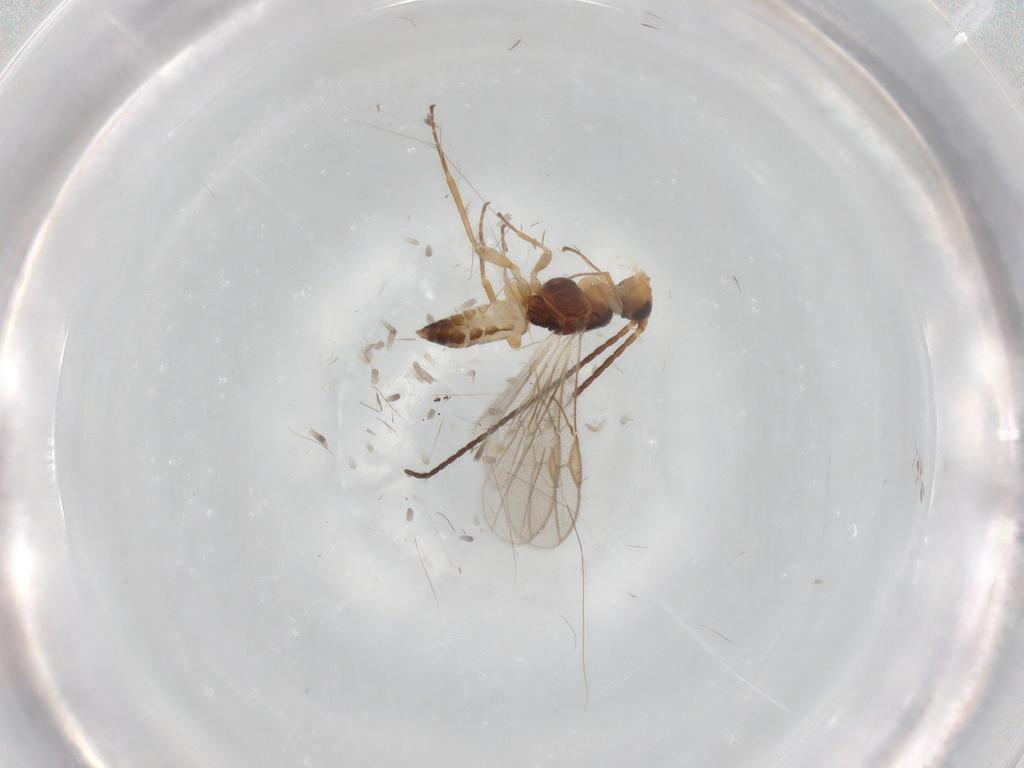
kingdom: Animalia
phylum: Arthropoda
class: Insecta
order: Hymenoptera
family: Braconidae
